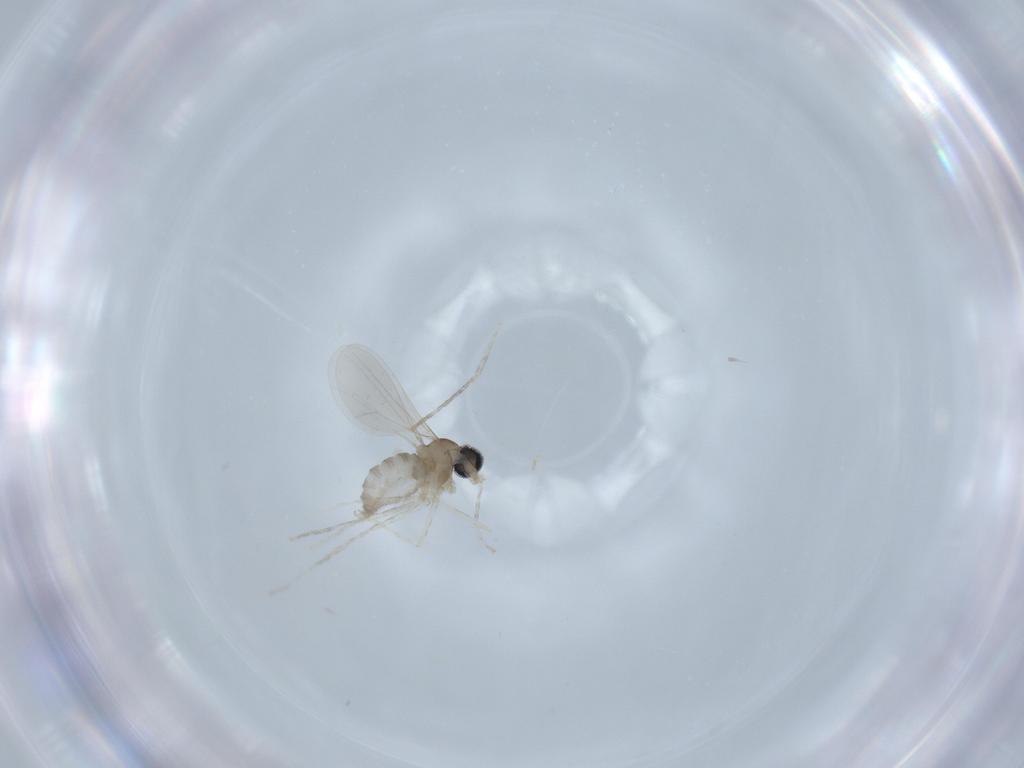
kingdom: Animalia
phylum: Arthropoda
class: Insecta
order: Diptera
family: Cecidomyiidae
